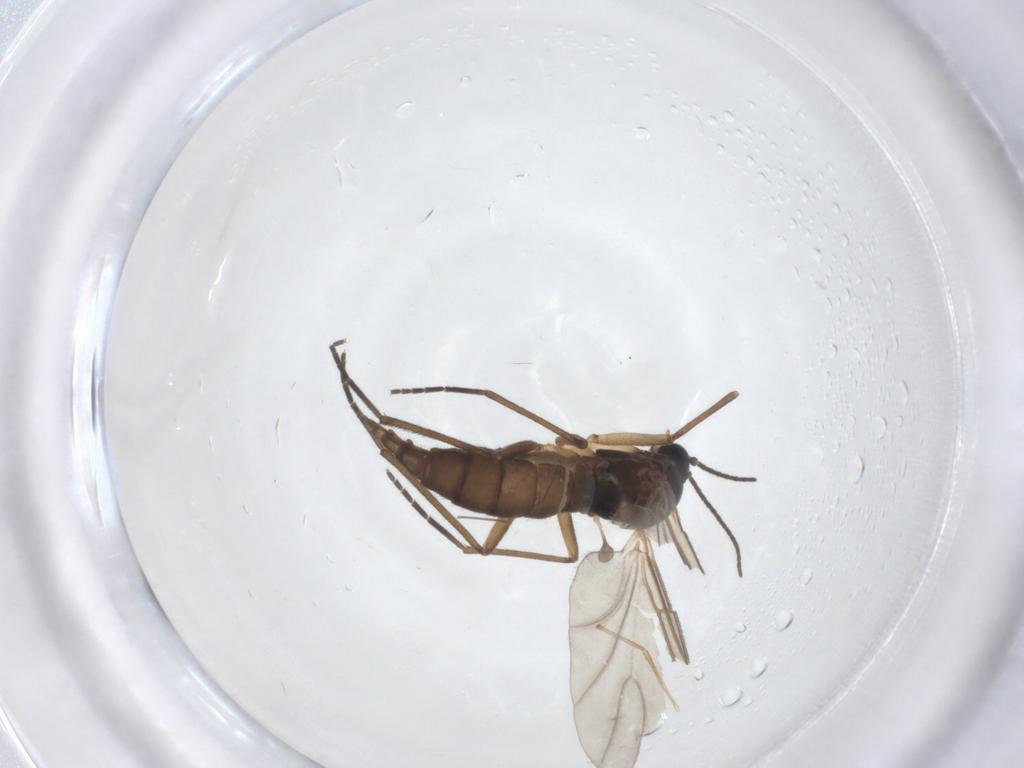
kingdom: Animalia
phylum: Arthropoda
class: Insecta
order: Diptera
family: Sciaridae
